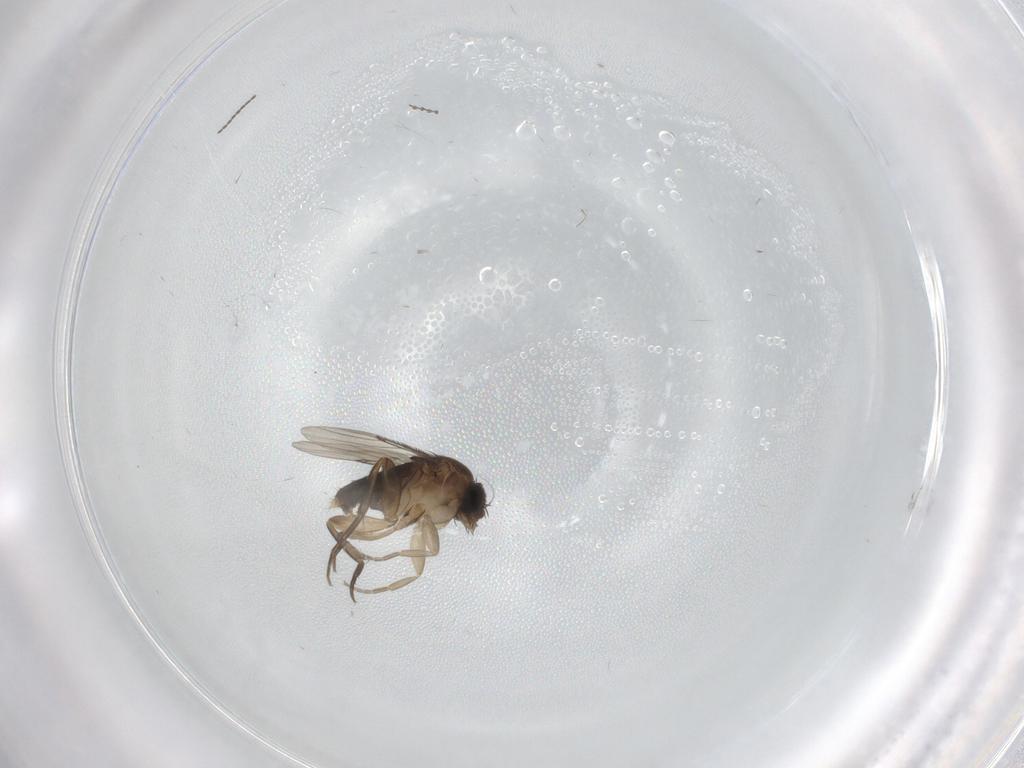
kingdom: Animalia
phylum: Arthropoda
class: Insecta
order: Diptera
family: Phoridae
